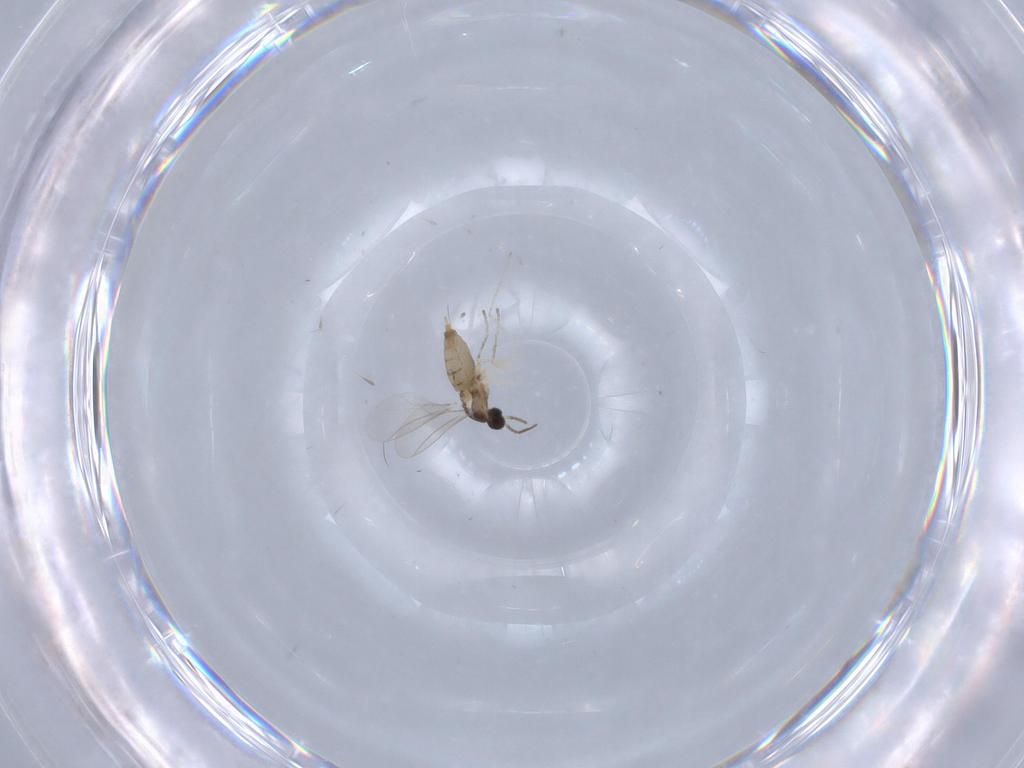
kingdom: Animalia
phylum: Arthropoda
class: Insecta
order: Diptera
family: Cecidomyiidae
